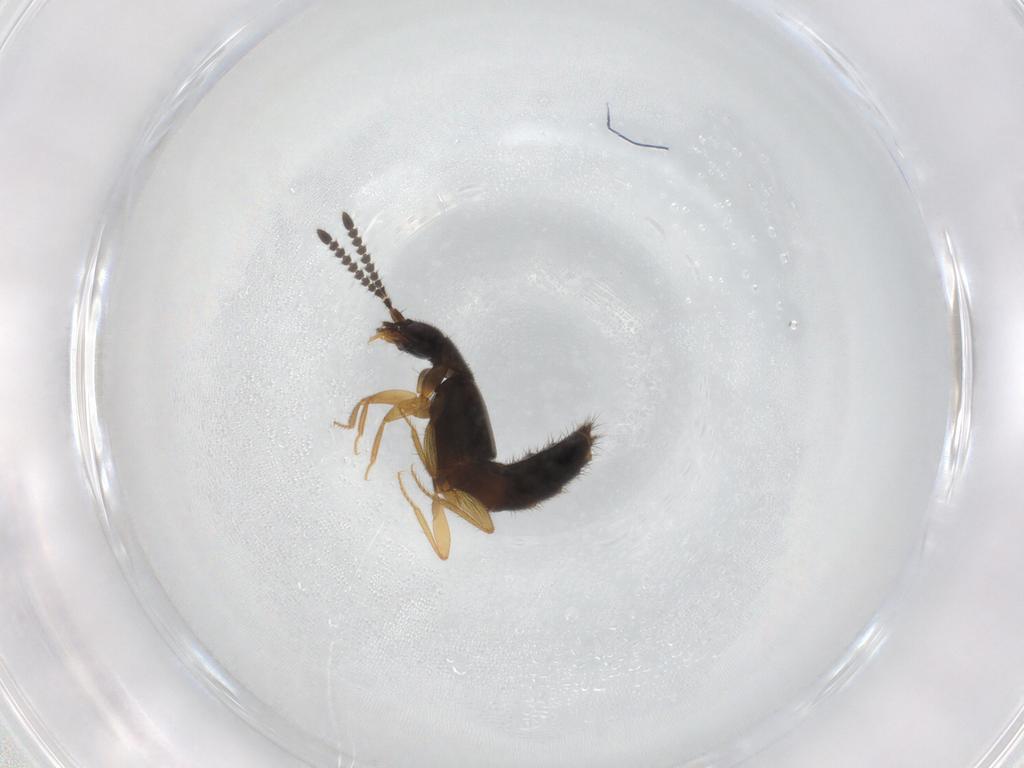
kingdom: Animalia
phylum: Arthropoda
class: Insecta
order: Coleoptera
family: Staphylinidae
